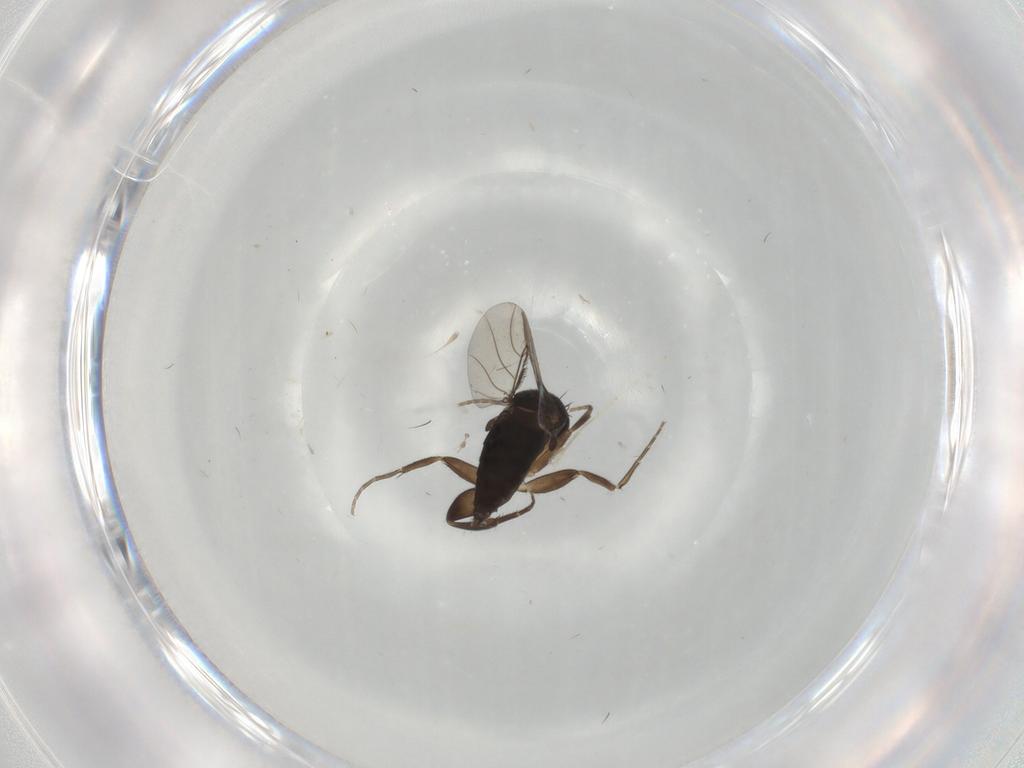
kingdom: Animalia
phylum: Arthropoda
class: Insecta
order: Diptera
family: Phoridae
